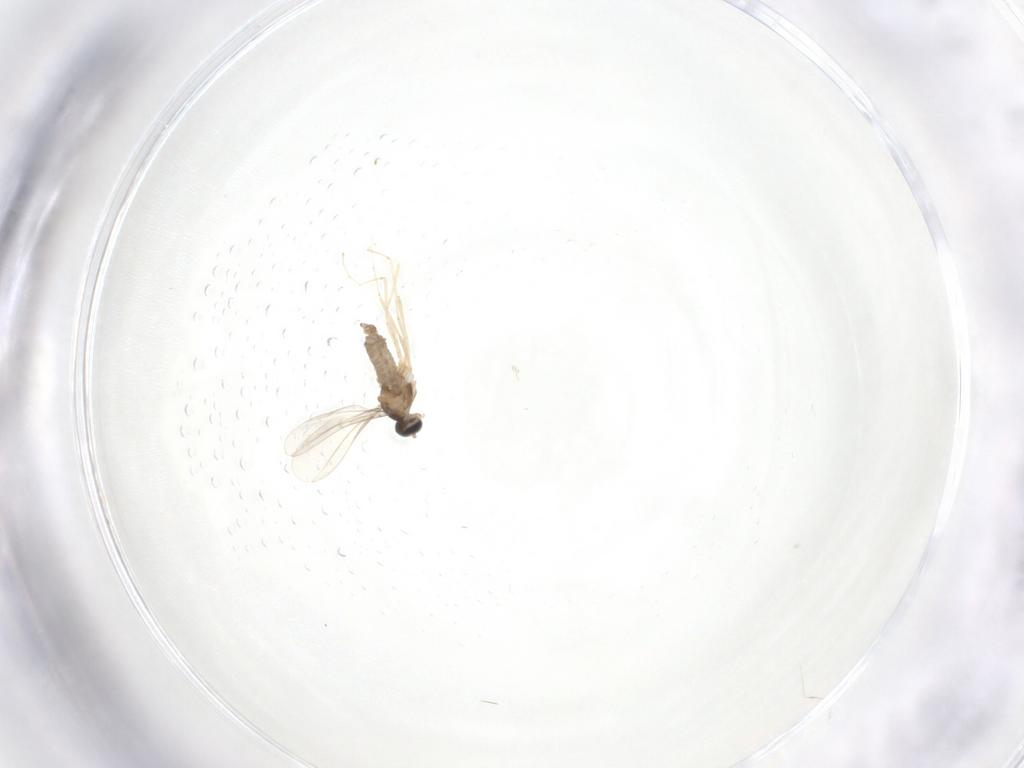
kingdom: Animalia
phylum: Arthropoda
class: Insecta
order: Diptera
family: Cecidomyiidae
